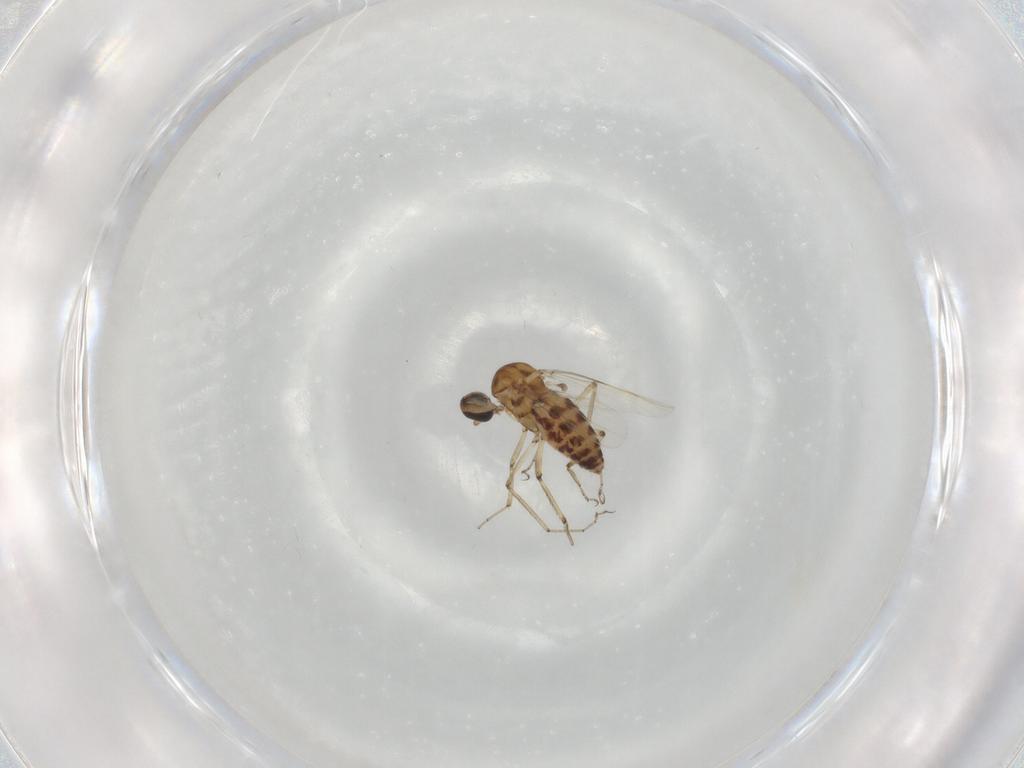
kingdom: Animalia
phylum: Arthropoda
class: Insecta
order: Diptera
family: Ceratopogonidae
